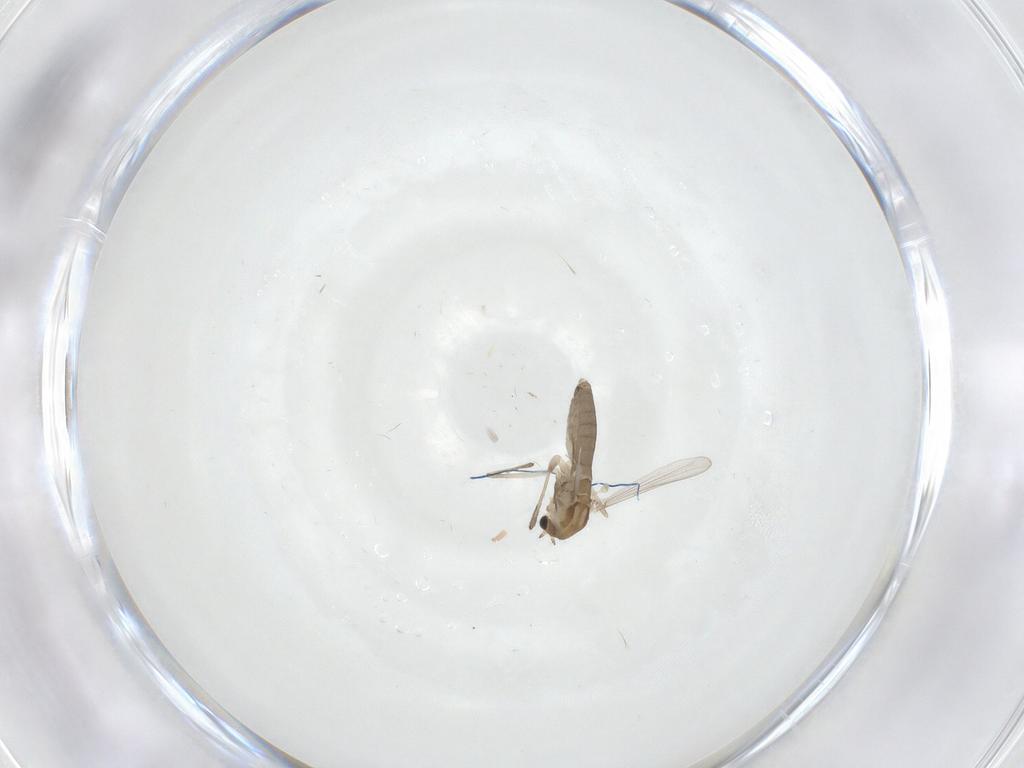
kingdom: Animalia
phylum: Arthropoda
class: Insecta
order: Diptera
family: Chironomidae
